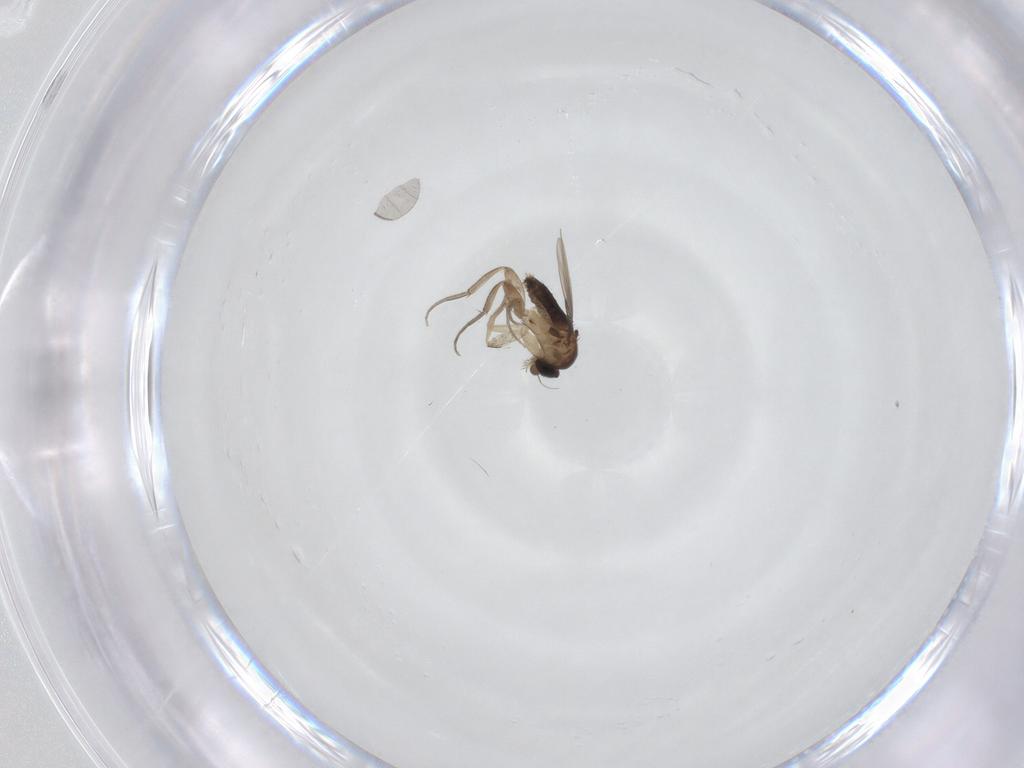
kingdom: Animalia
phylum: Arthropoda
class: Insecta
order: Diptera
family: Phoridae
